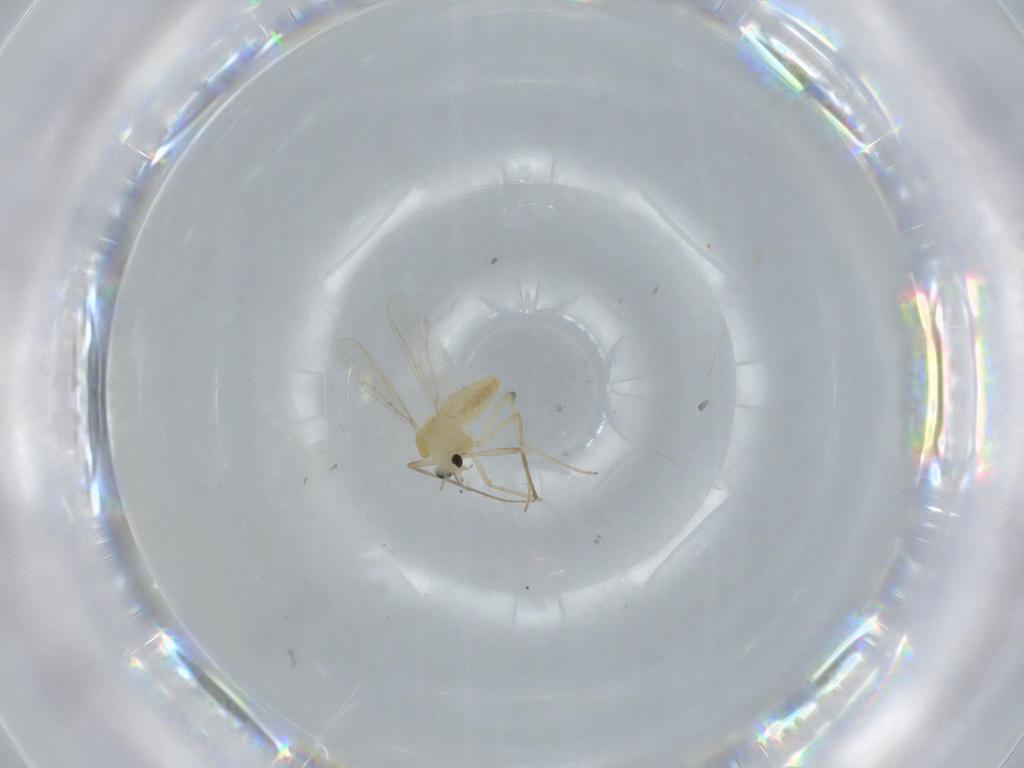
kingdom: Animalia
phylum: Arthropoda
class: Insecta
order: Diptera
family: Chironomidae
